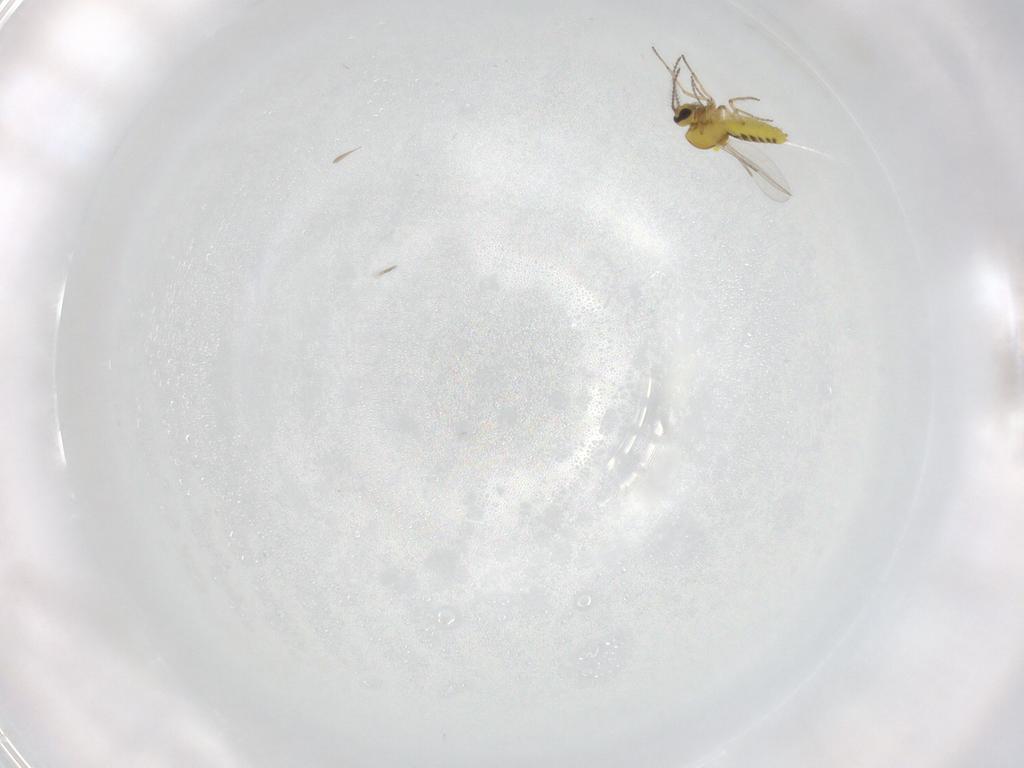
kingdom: Animalia
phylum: Arthropoda
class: Insecta
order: Diptera
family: Ceratopogonidae
